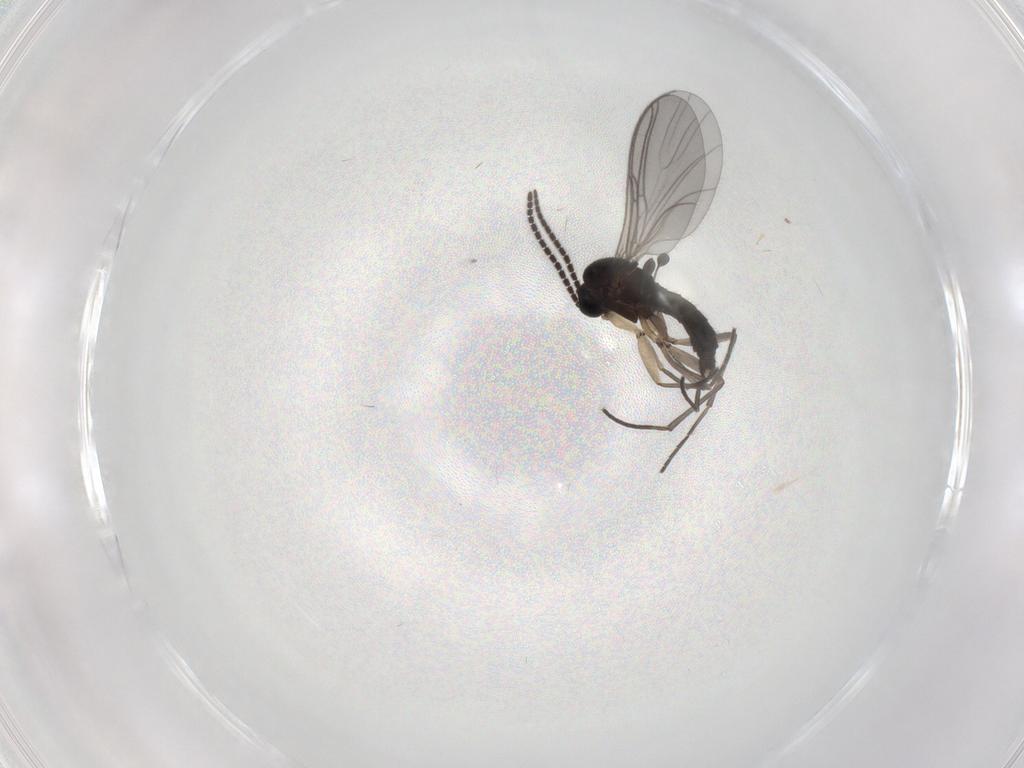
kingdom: Animalia
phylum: Arthropoda
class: Insecta
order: Diptera
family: Sciaridae
